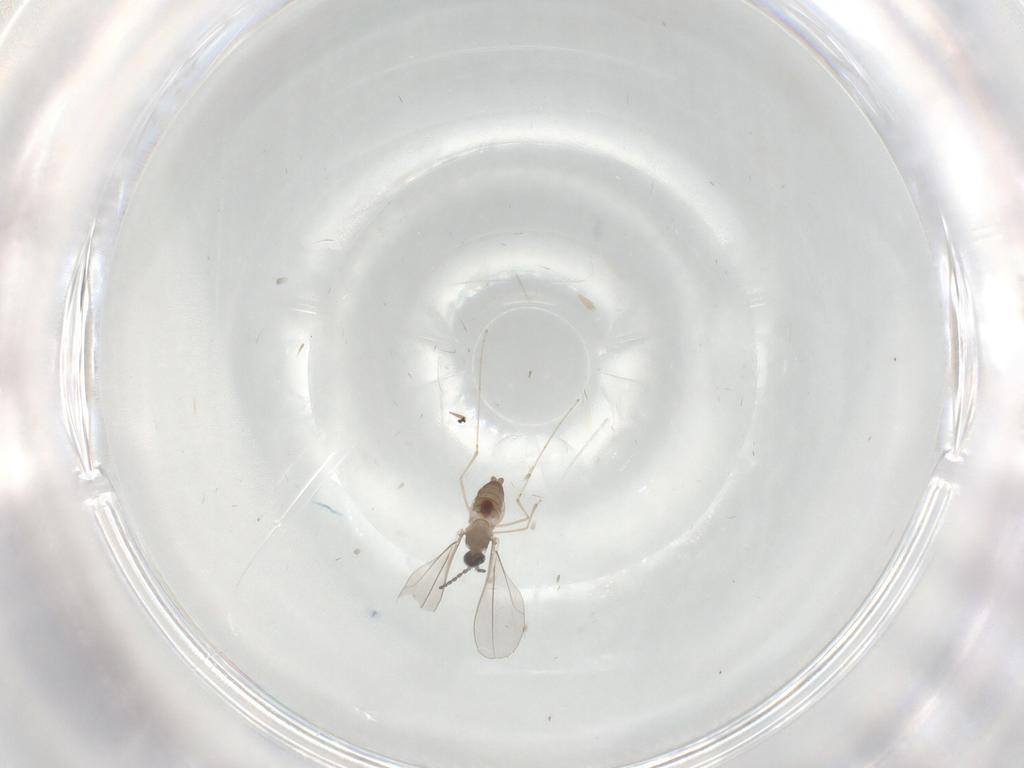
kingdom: Animalia
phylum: Arthropoda
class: Insecta
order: Diptera
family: Cecidomyiidae
